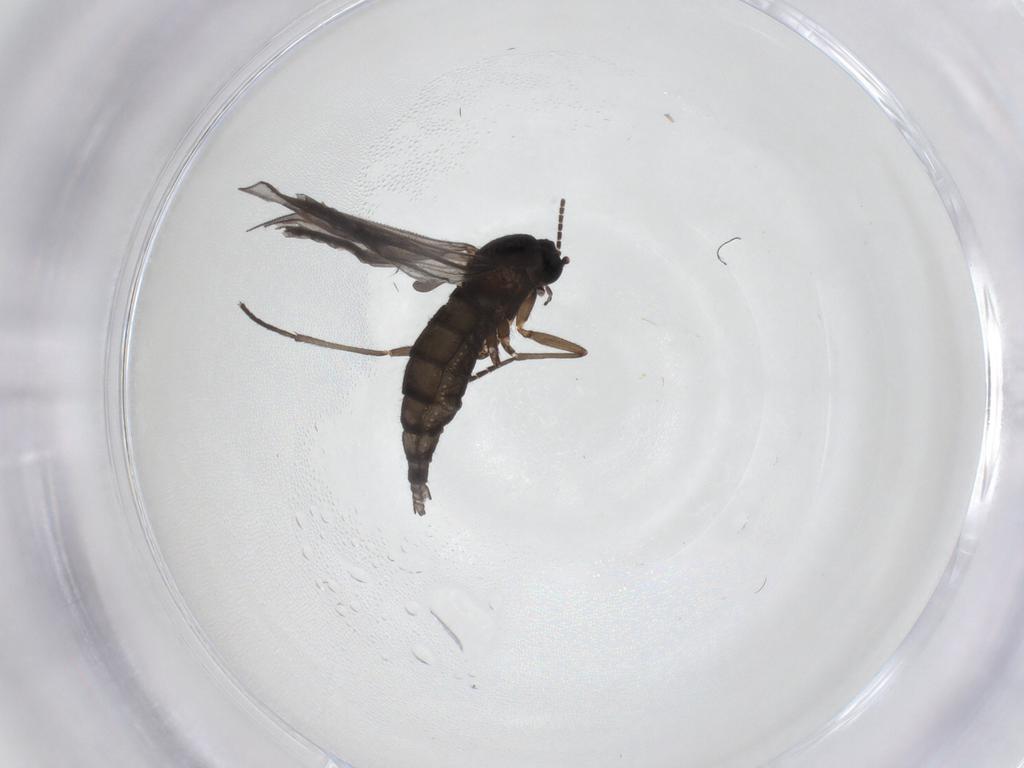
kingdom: Animalia
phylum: Arthropoda
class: Insecta
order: Diptera
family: Sciaridae
